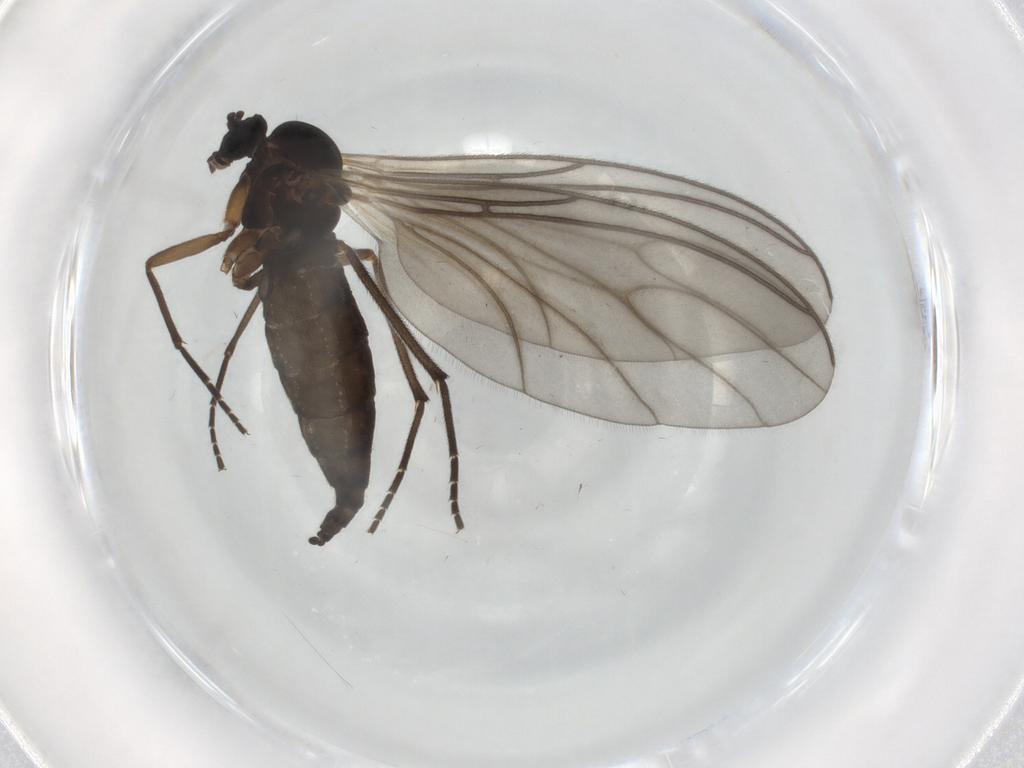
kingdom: Animalia
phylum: Arthropoda
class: Insecta
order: Diptera
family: Sciaridae
